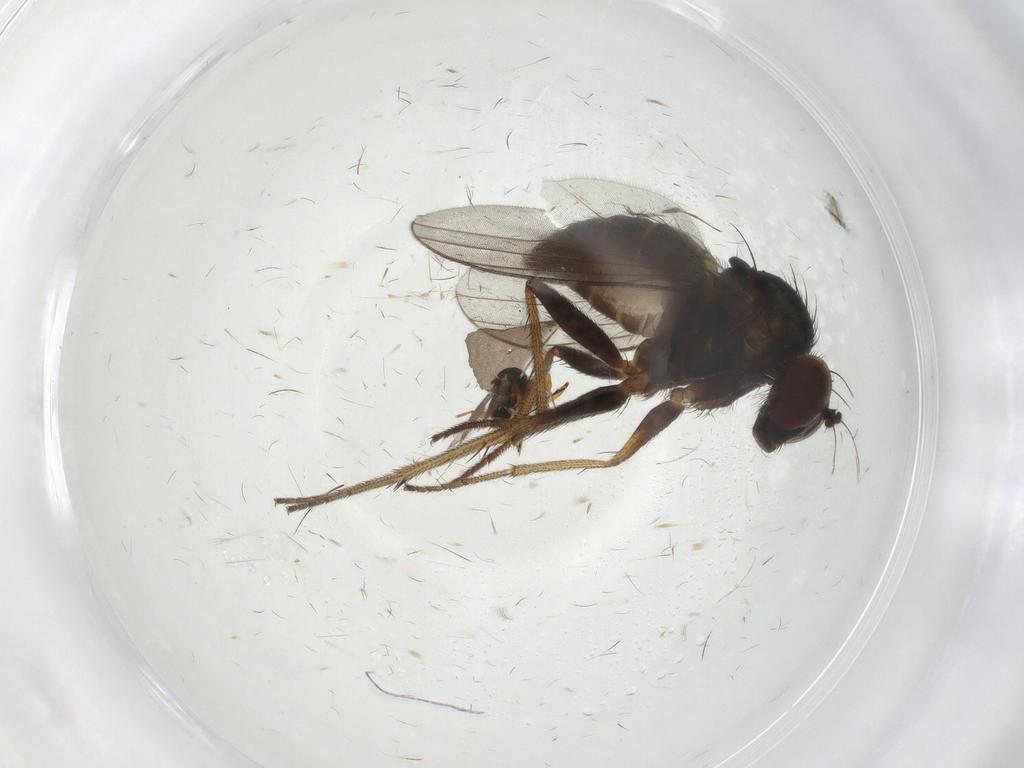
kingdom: Animalia
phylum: Arthropoda
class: Insecta
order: Diptera
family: Chironomidae
